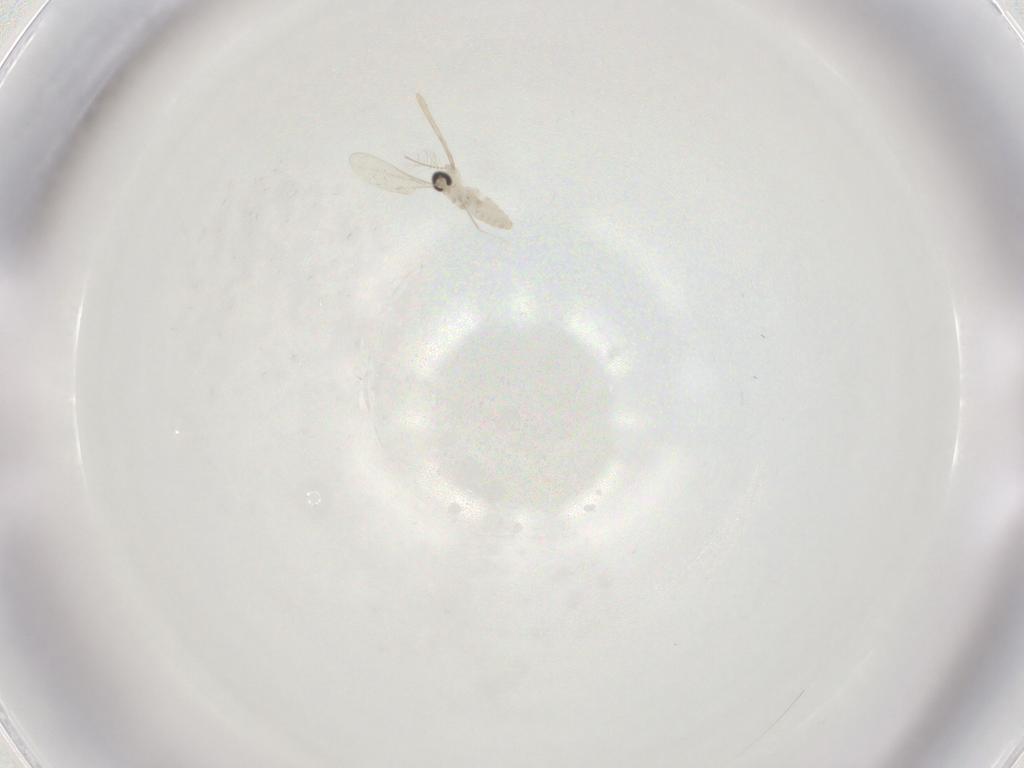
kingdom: Animalia
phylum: Arthropoda
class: Insecta
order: Diptera
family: Cecidomyiidae
